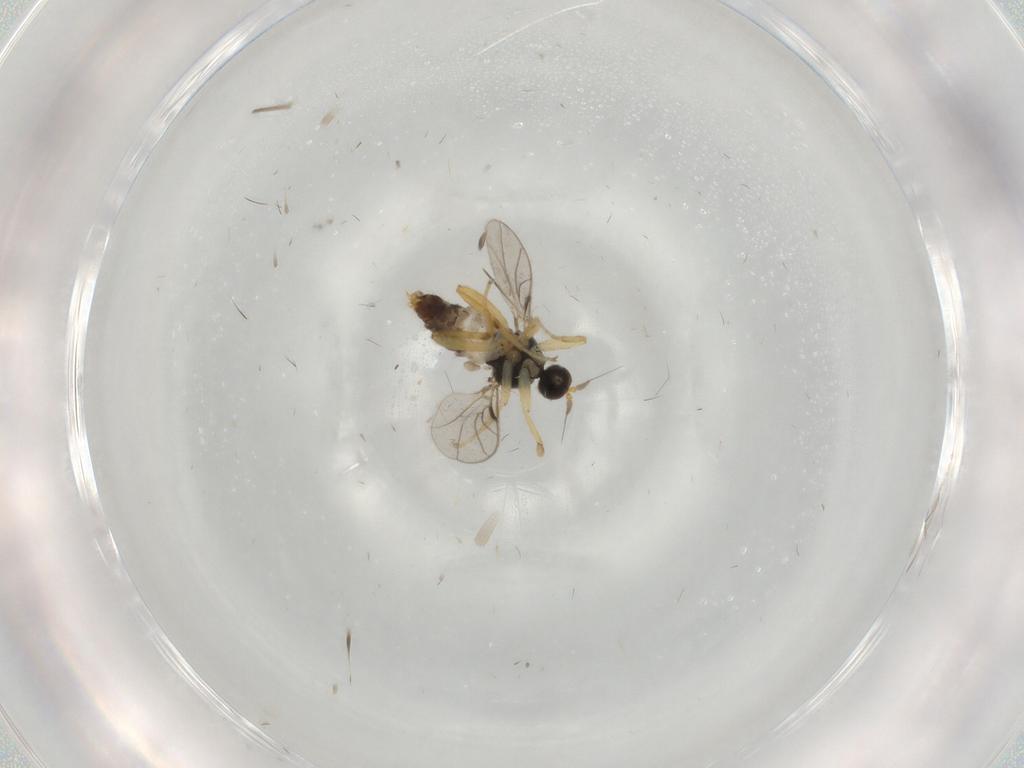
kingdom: Animalia
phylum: Arthropoda
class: Insecta
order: Diptera
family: Hybotidae
